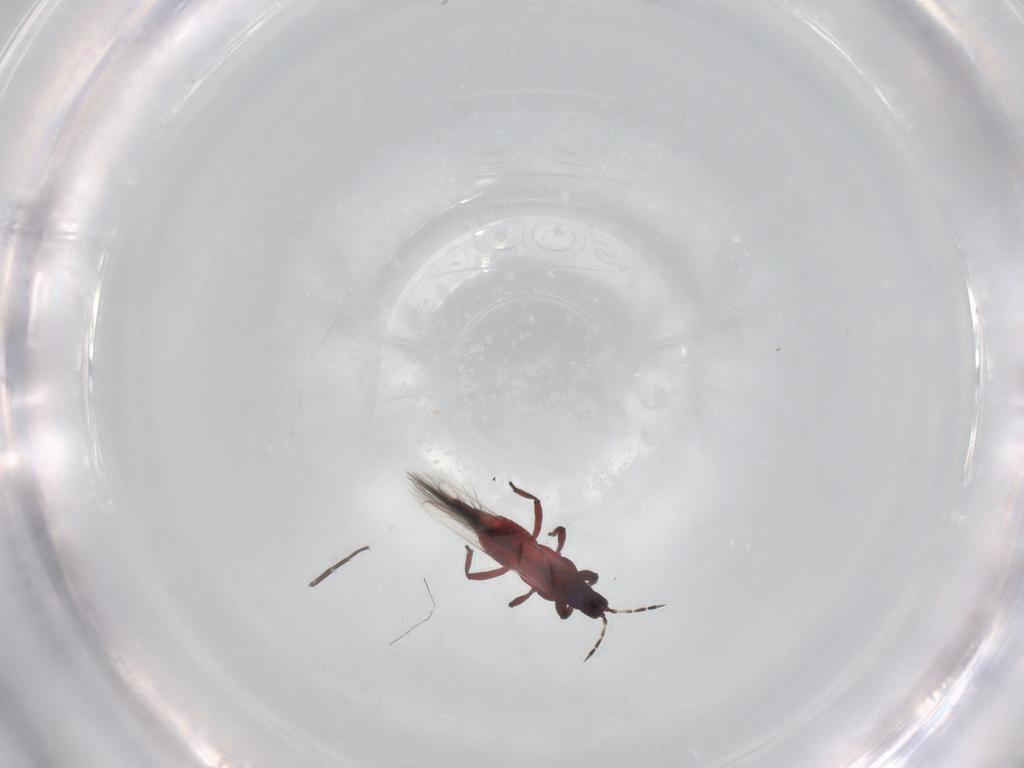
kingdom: Animalia
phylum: Arthropoda
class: Insecta
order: Thysanoptera
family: Aeolothripidae
